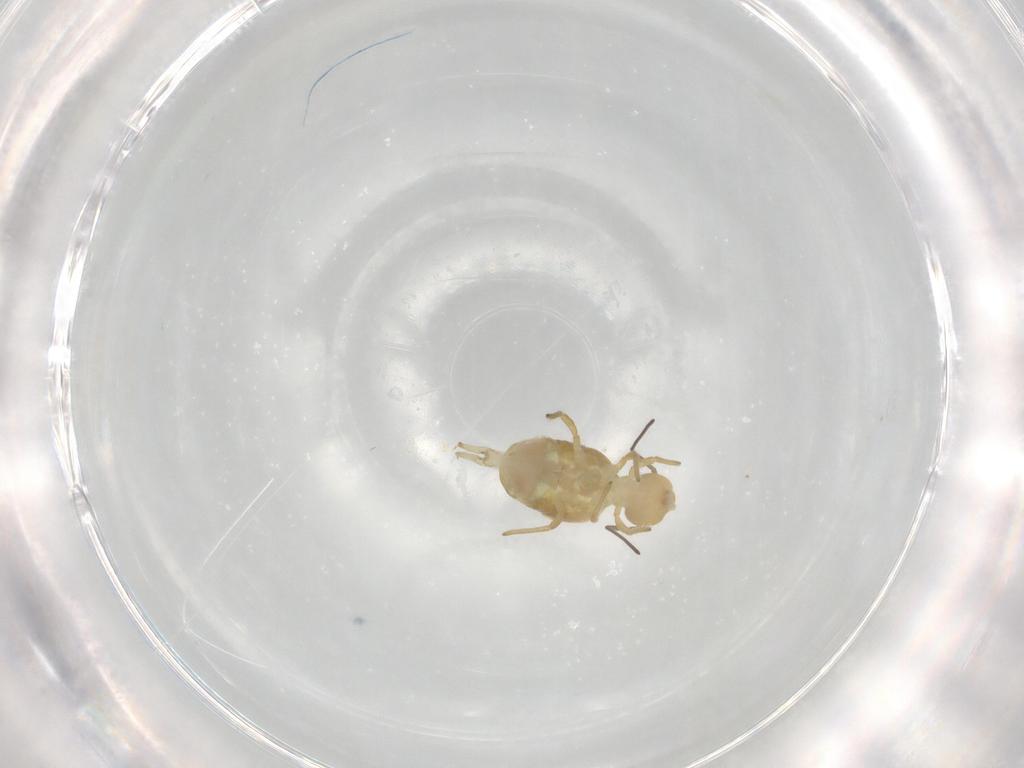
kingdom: Animalia
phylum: Arthropoda
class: Collembola
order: Symphypleona
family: Sminthuridae
